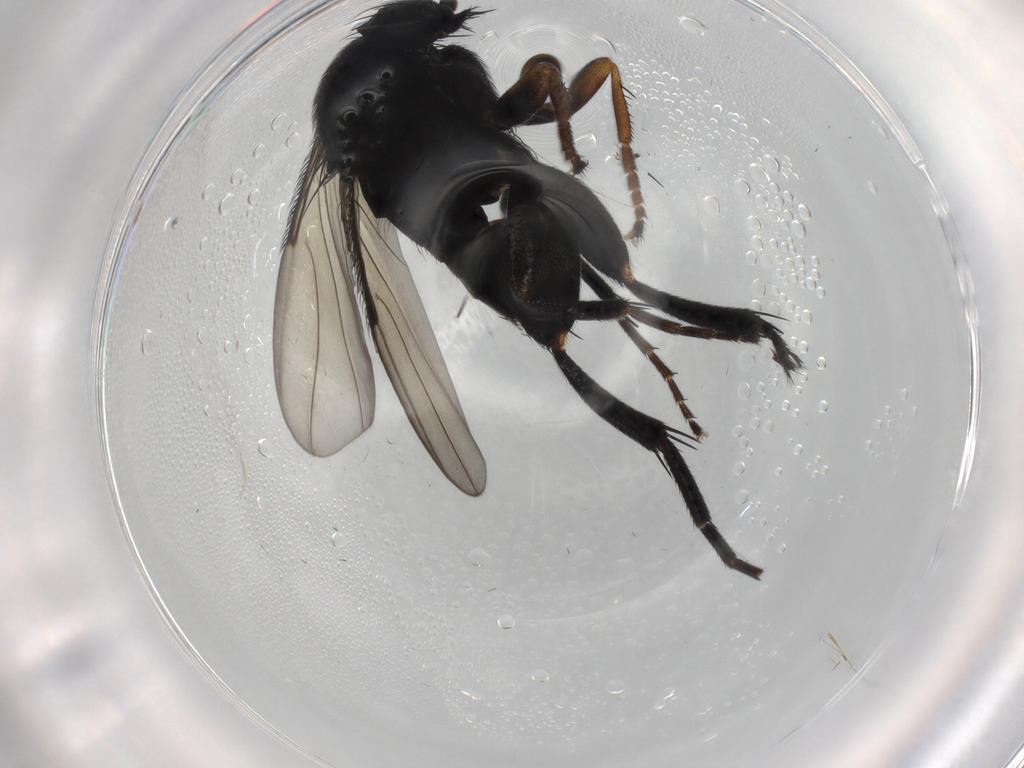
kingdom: Animalia
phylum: Arthropoda
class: Insecta
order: Diptera
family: Phoridae
